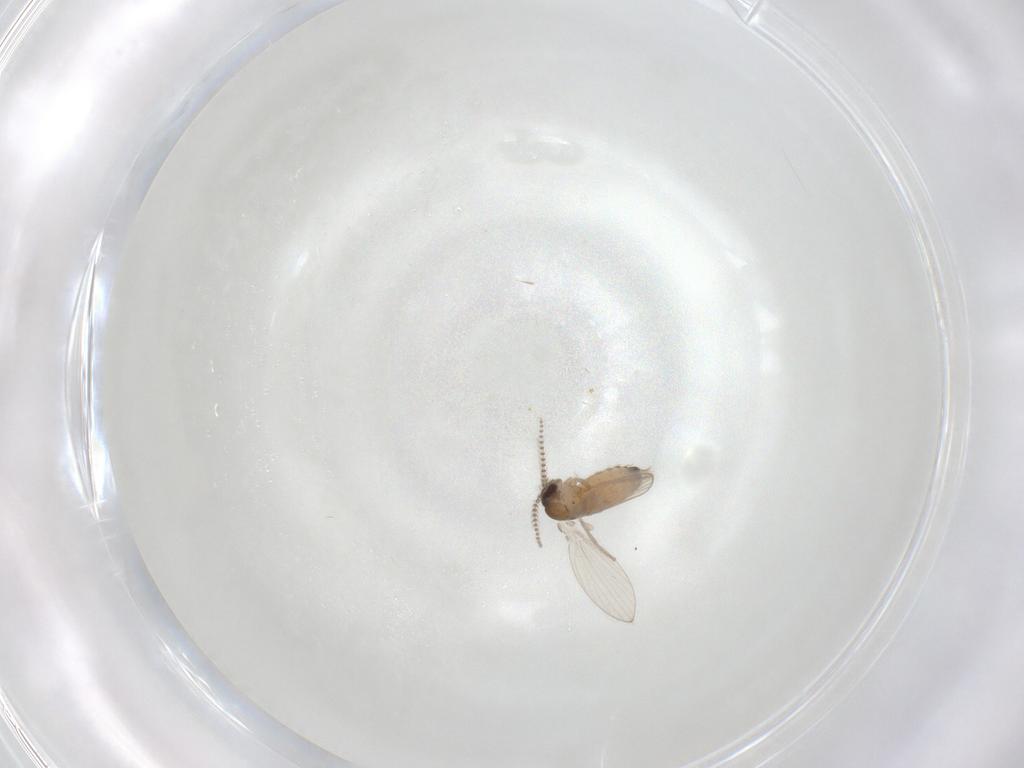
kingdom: Animalia
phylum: Arthropoda
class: Insecta
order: Diptera
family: Psychodidae
